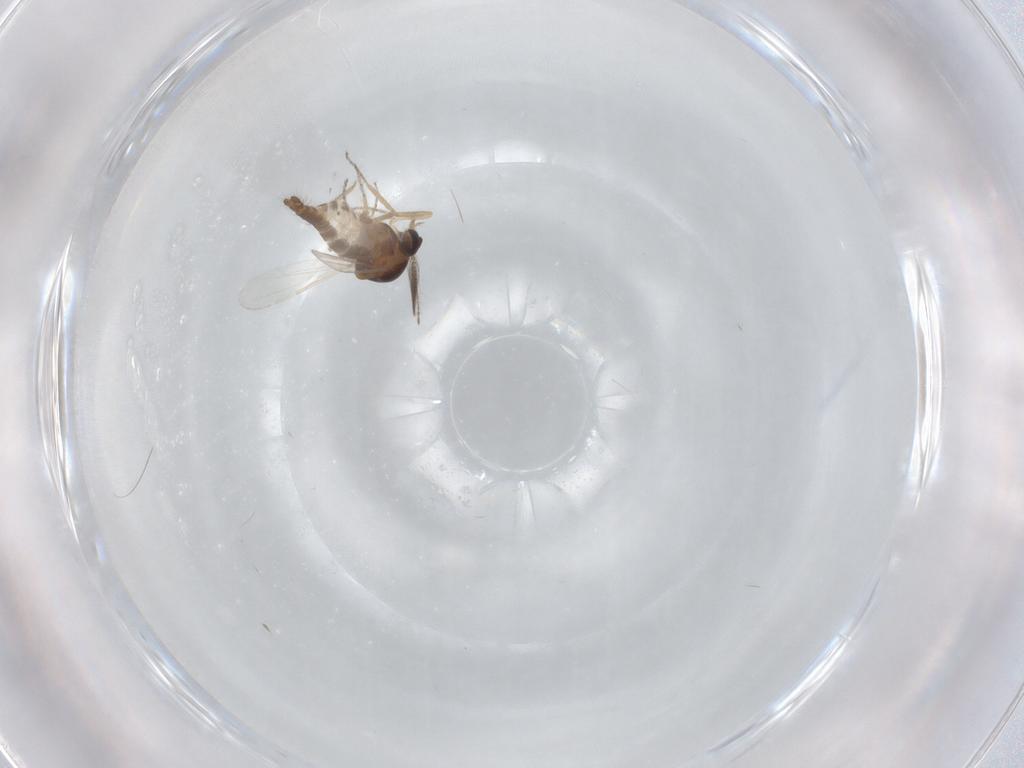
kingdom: Animalia
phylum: Arthropoda
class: Insecta
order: Diptera
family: Ceratopogonidae
